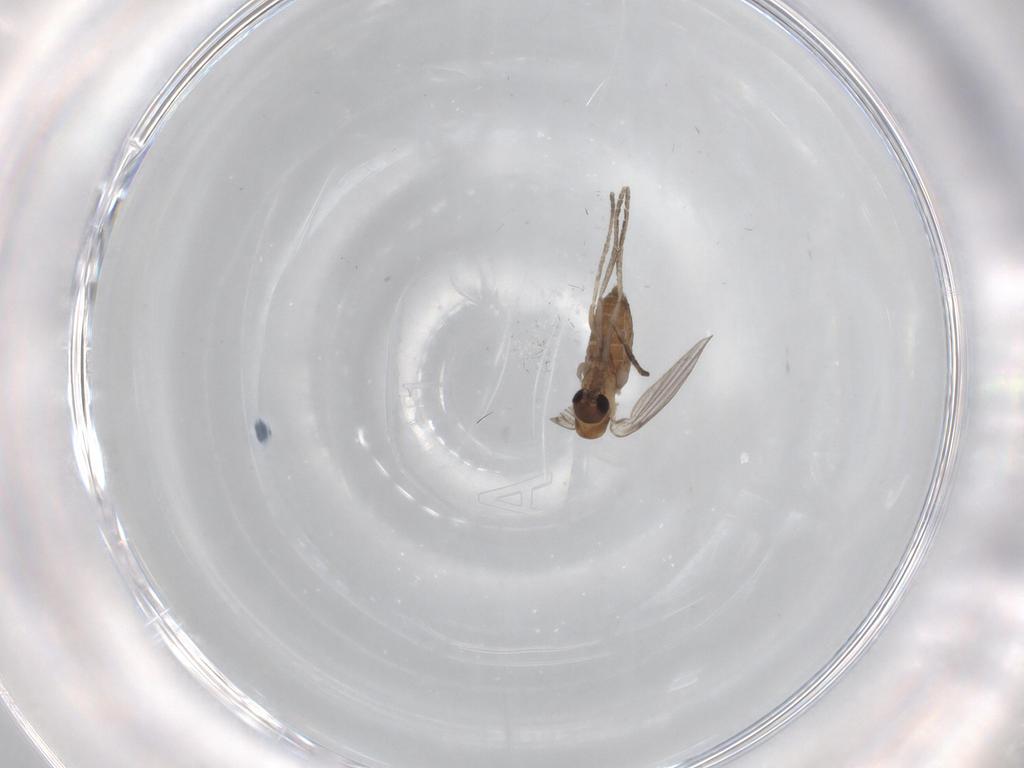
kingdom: Animalia
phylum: Arthropoda
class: Insecta
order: Diptera
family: Psychodidae
